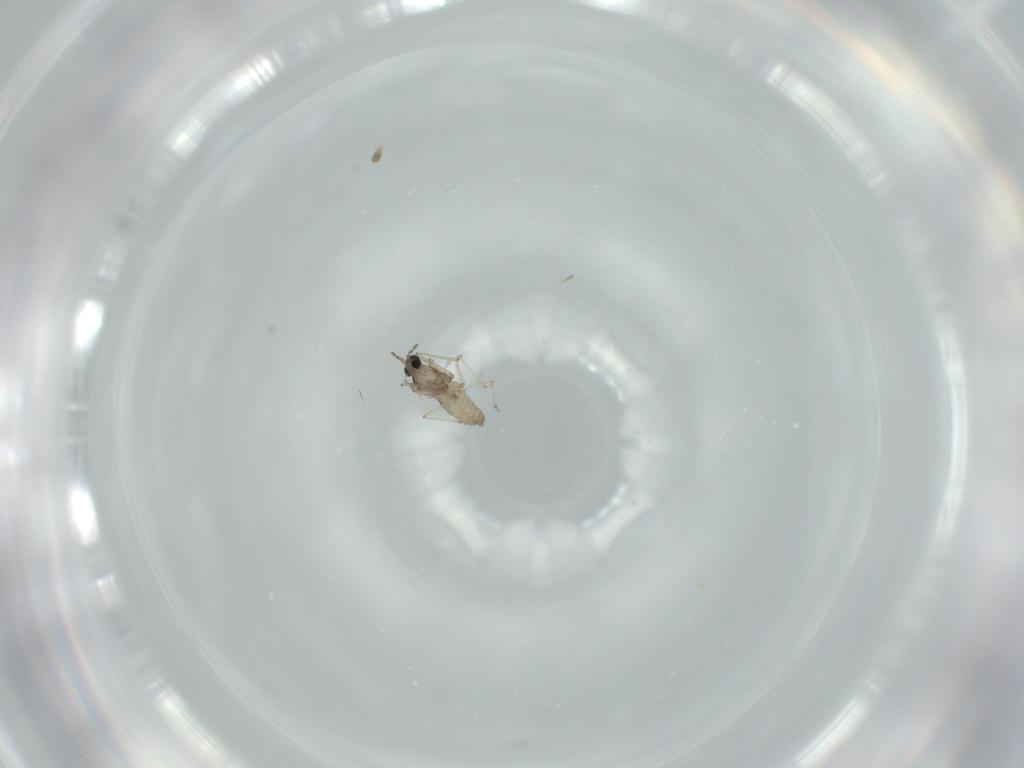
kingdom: Animalia
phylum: Arthropoda
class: Insecta
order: Diptera
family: Cecidomyiidae
